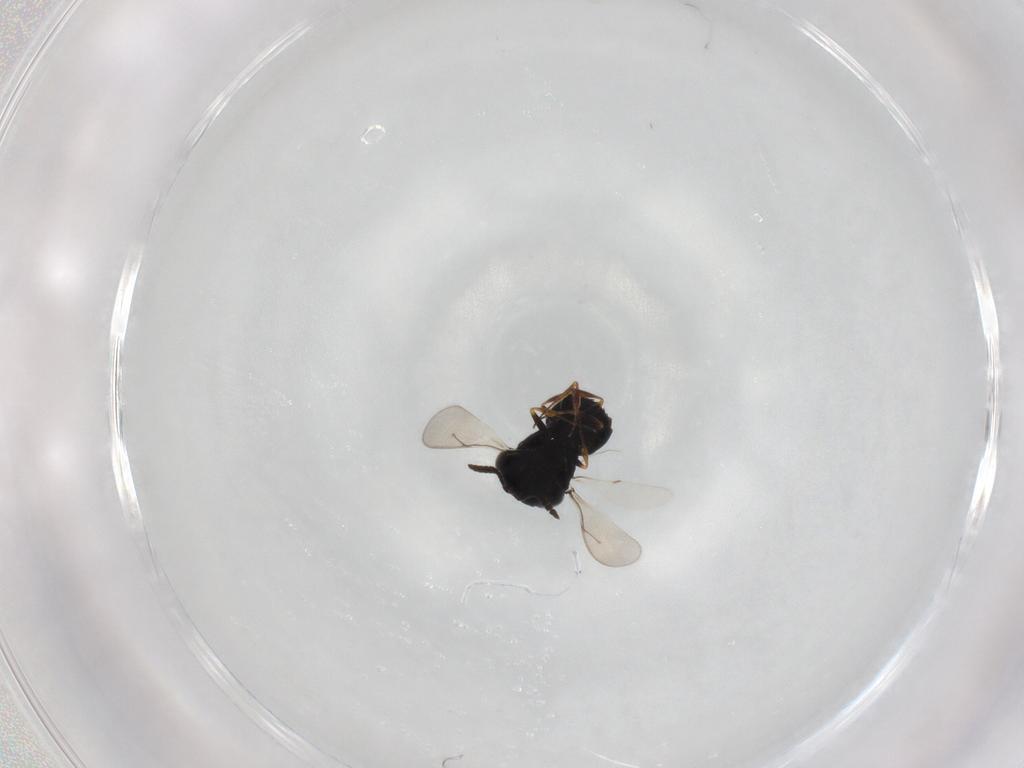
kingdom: Animalia
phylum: Arthropoda
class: Insecta
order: Hymenoptera
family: Scelionidae
